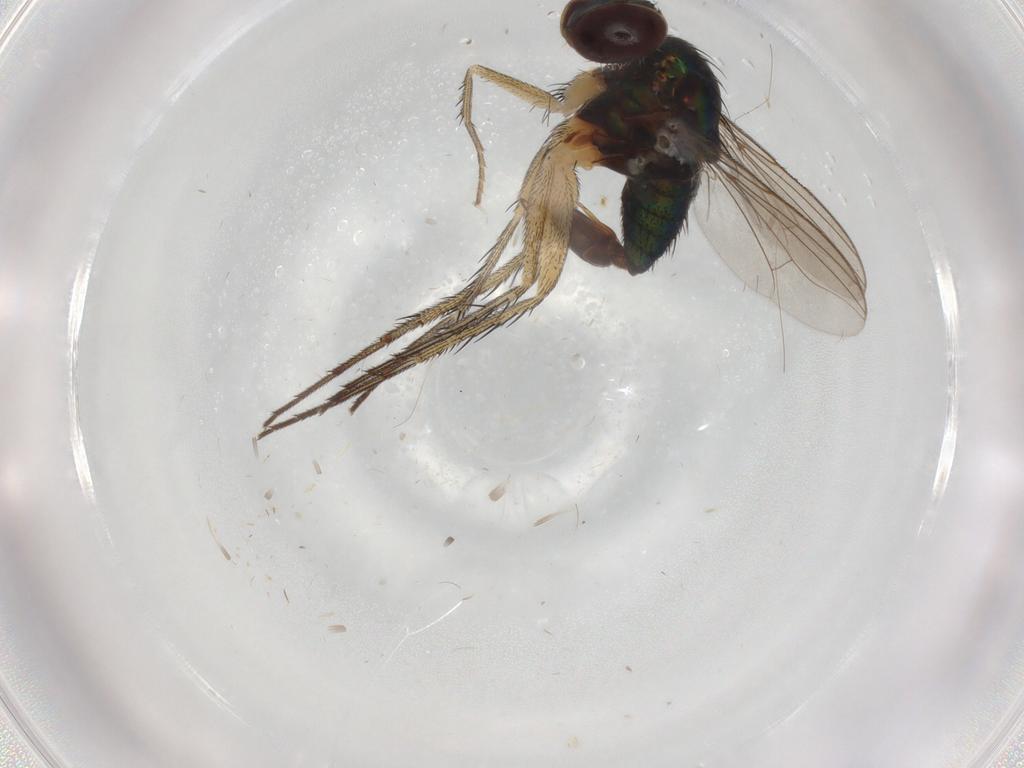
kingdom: Animalia
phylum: Arthropoda
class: Insecta
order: Diptera
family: Dolichopodidae
